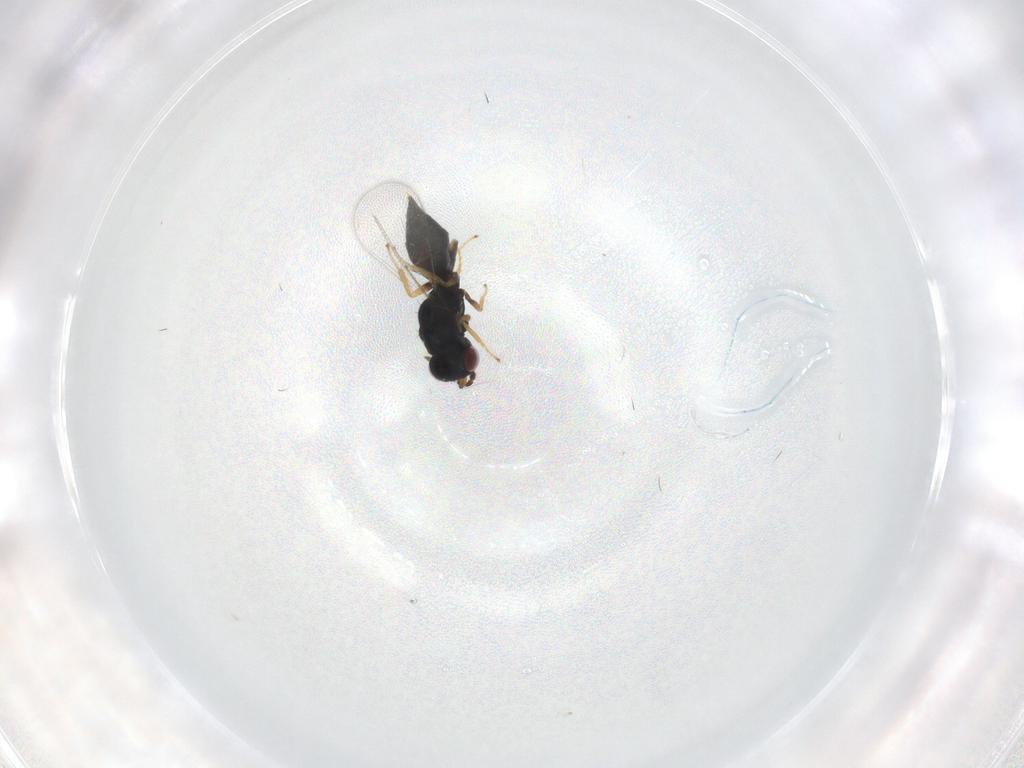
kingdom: Animalia
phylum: Arthropoda
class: Insecta
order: Hymenoptera
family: Eulophidae
